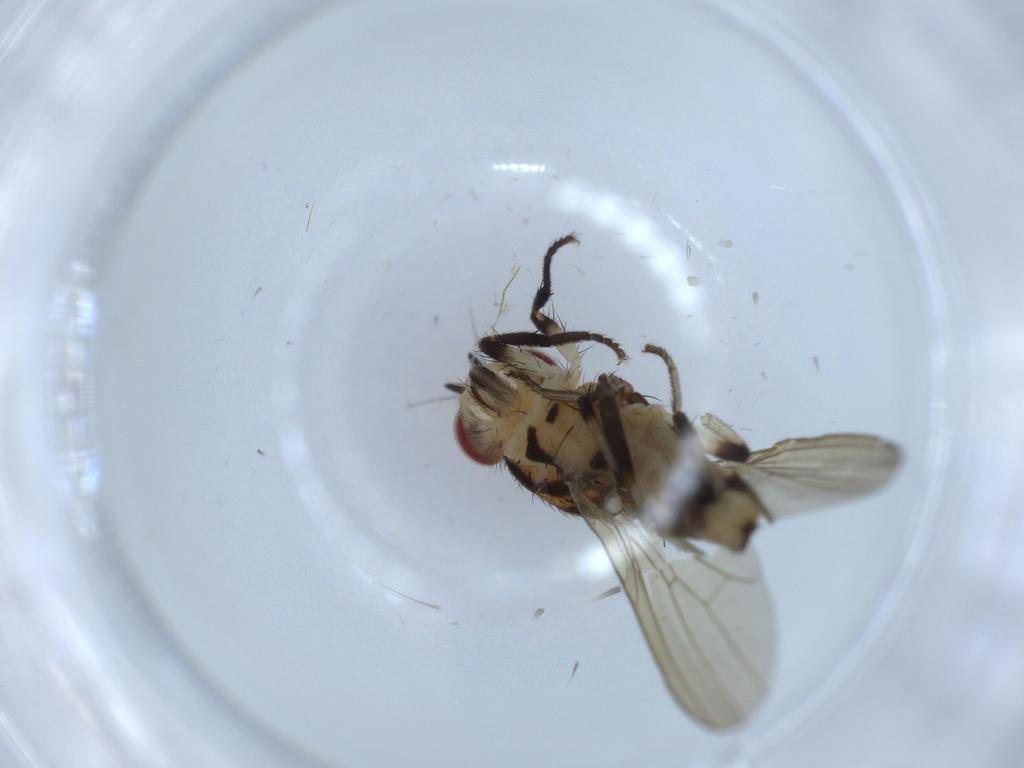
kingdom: Animalia
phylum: Arthropoda
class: Insecta
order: Diptera
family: Lauxaniidae
